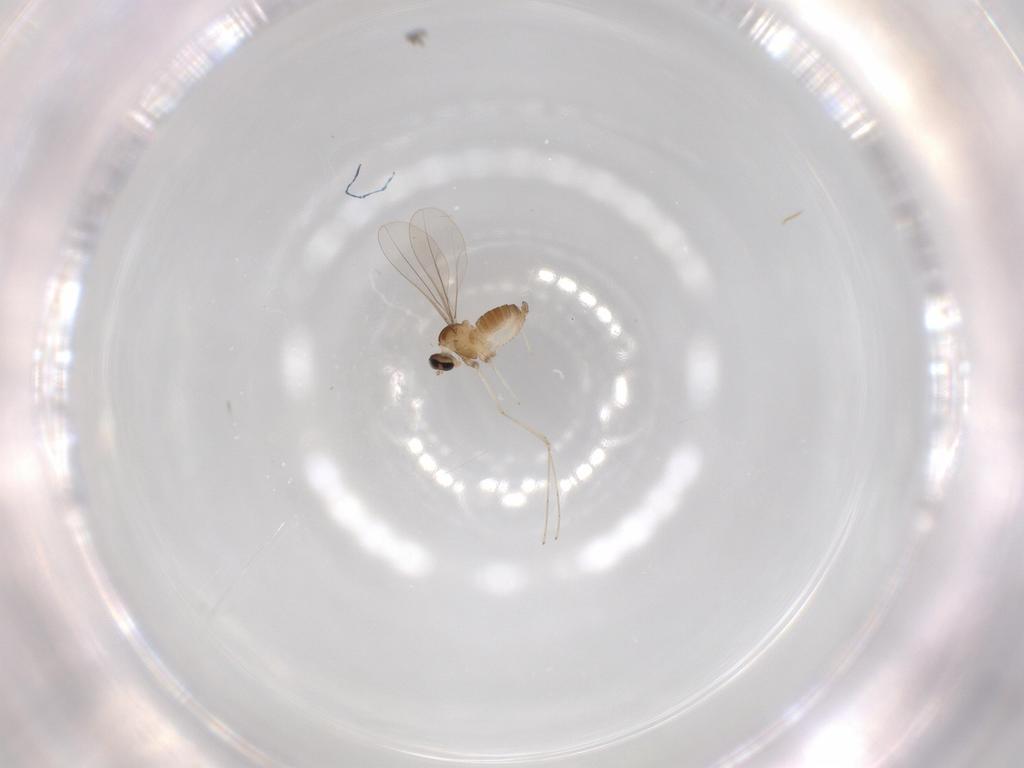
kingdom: Animalia
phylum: Arthropoda
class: Insecta
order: Diptera
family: Cecidomyiidae
